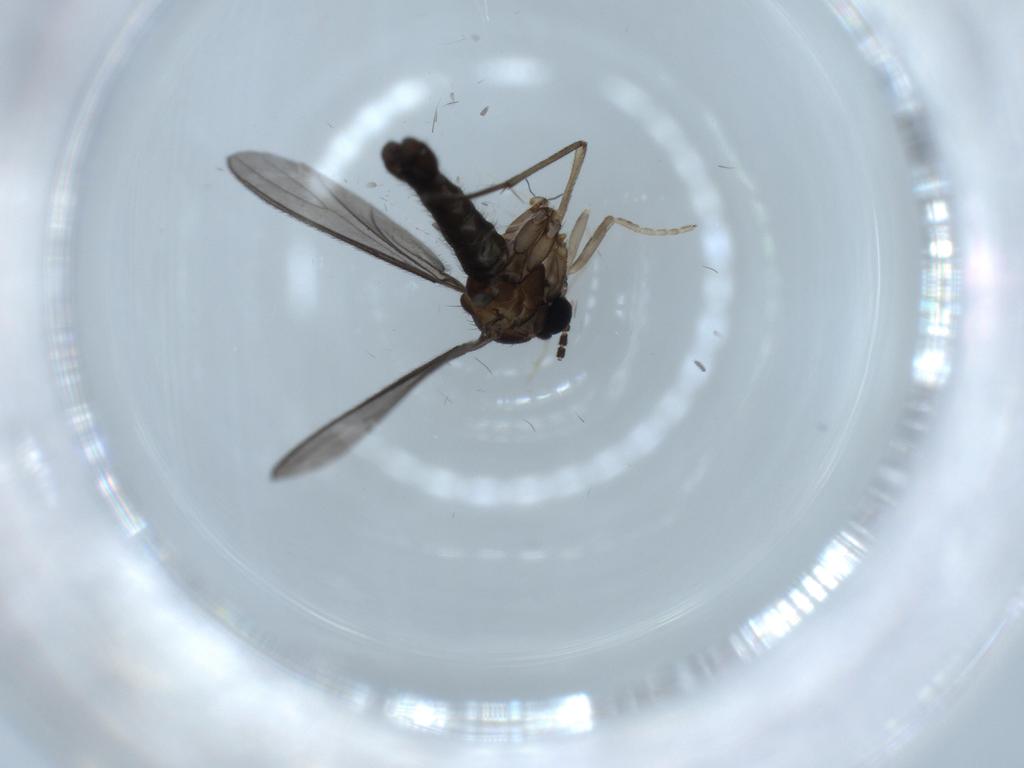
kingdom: Animalia
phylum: Arthropoda
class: Insecta
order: Diptera
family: Sciaridae
